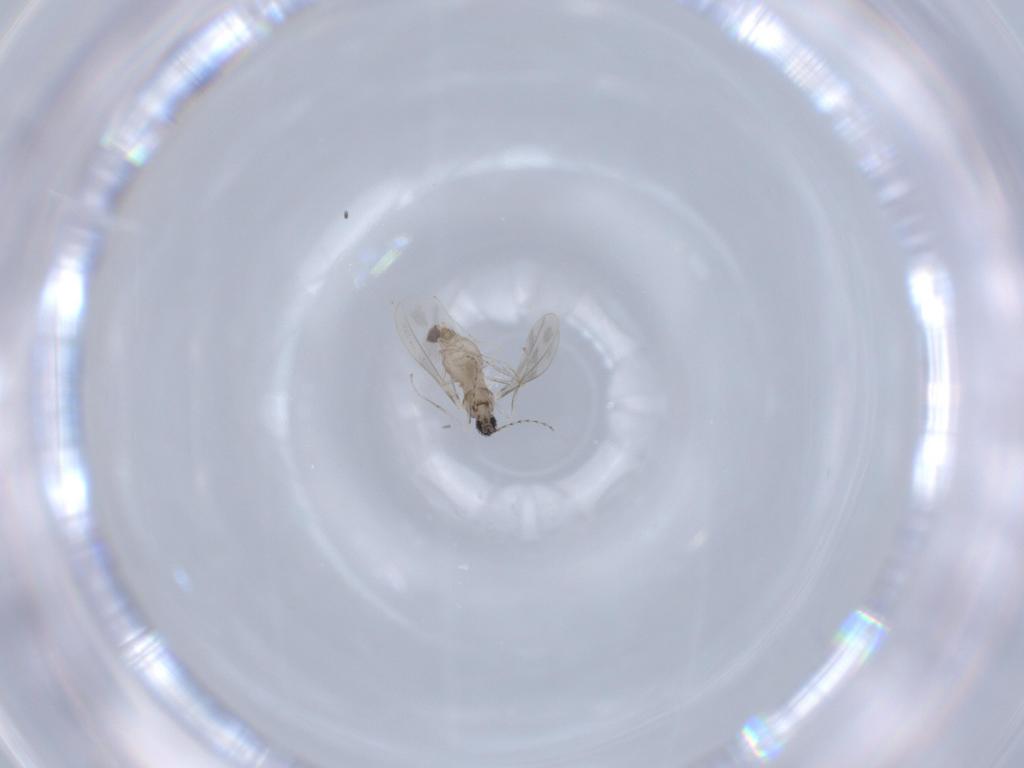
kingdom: Animalia
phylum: Arthropoda
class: Insecta
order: Diptera
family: Cecidomyiidae
